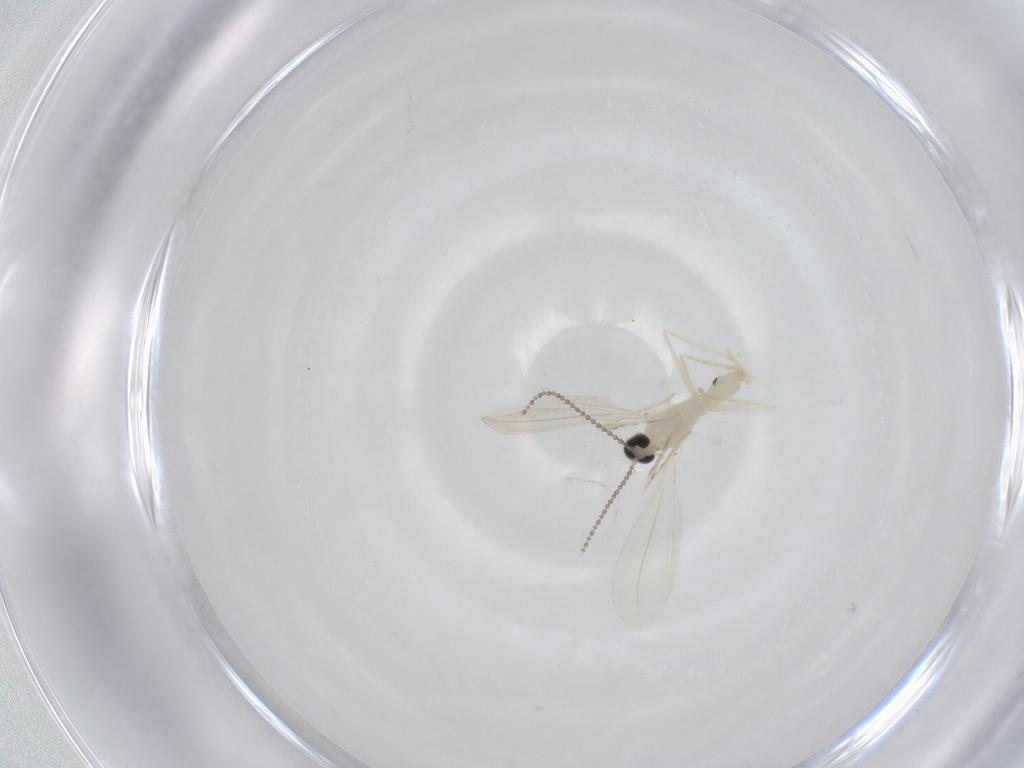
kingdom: Animalia
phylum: Arthropoda
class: Insecta
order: Diptera
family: Cecidomyiidae
